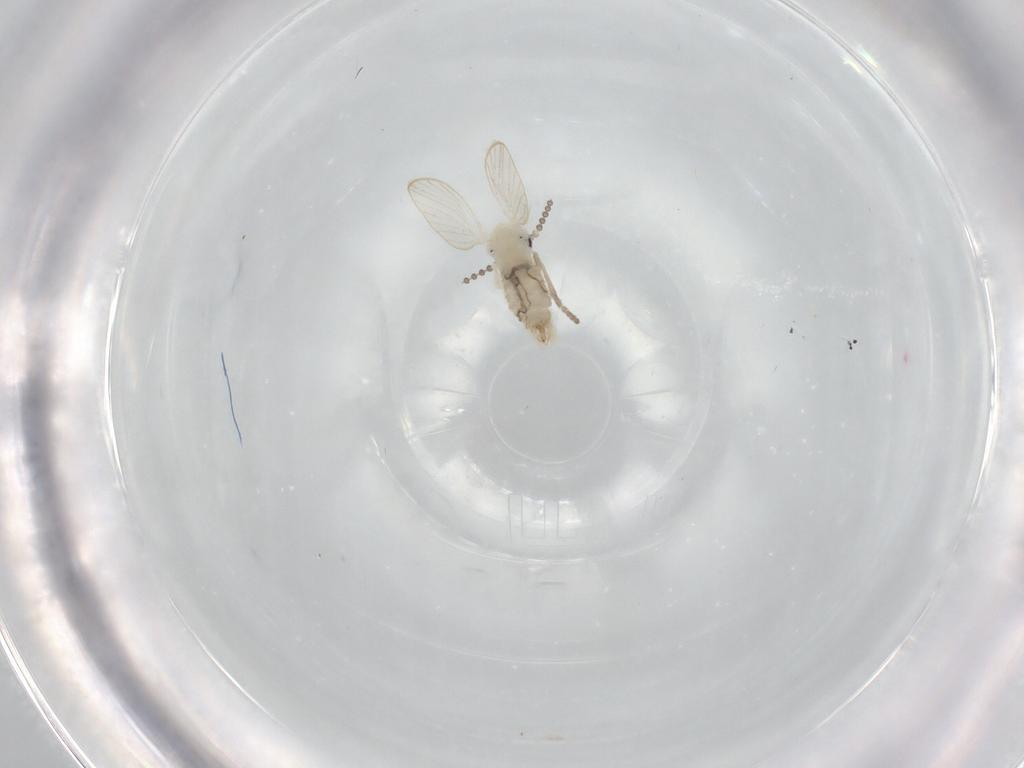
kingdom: Animalia
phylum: Arthropoda
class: Insecta
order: Diptera
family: Psychodidae
